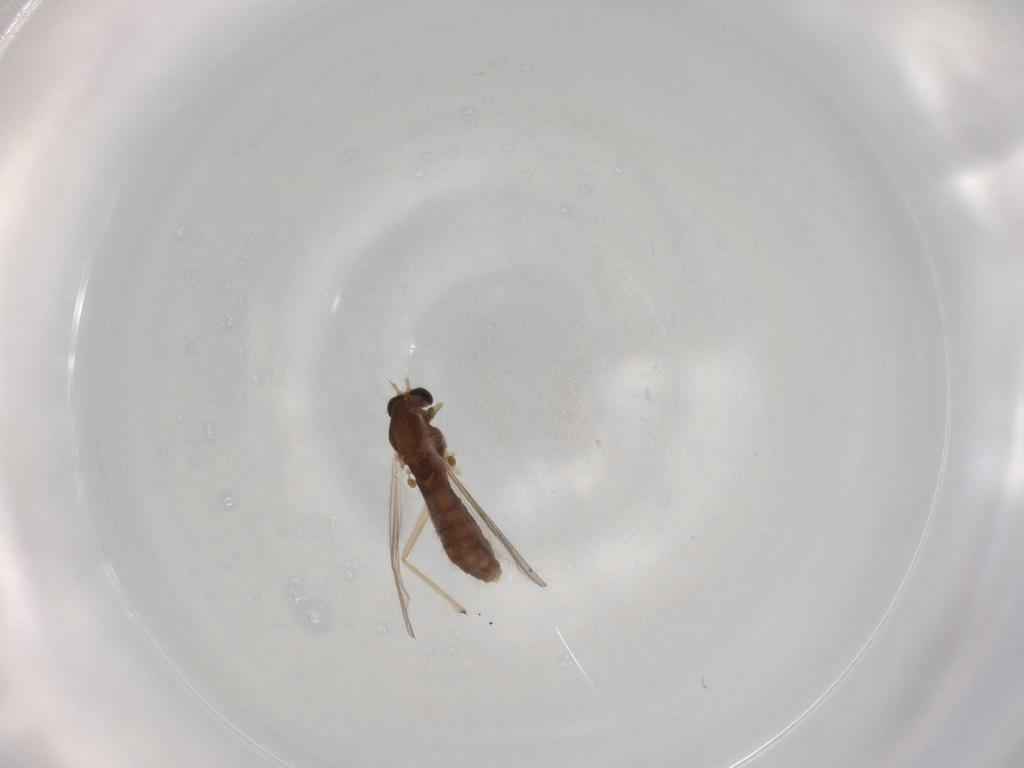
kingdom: Animalia
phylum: Arthropoda
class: Insecta
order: Diptera
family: Chironomidae
